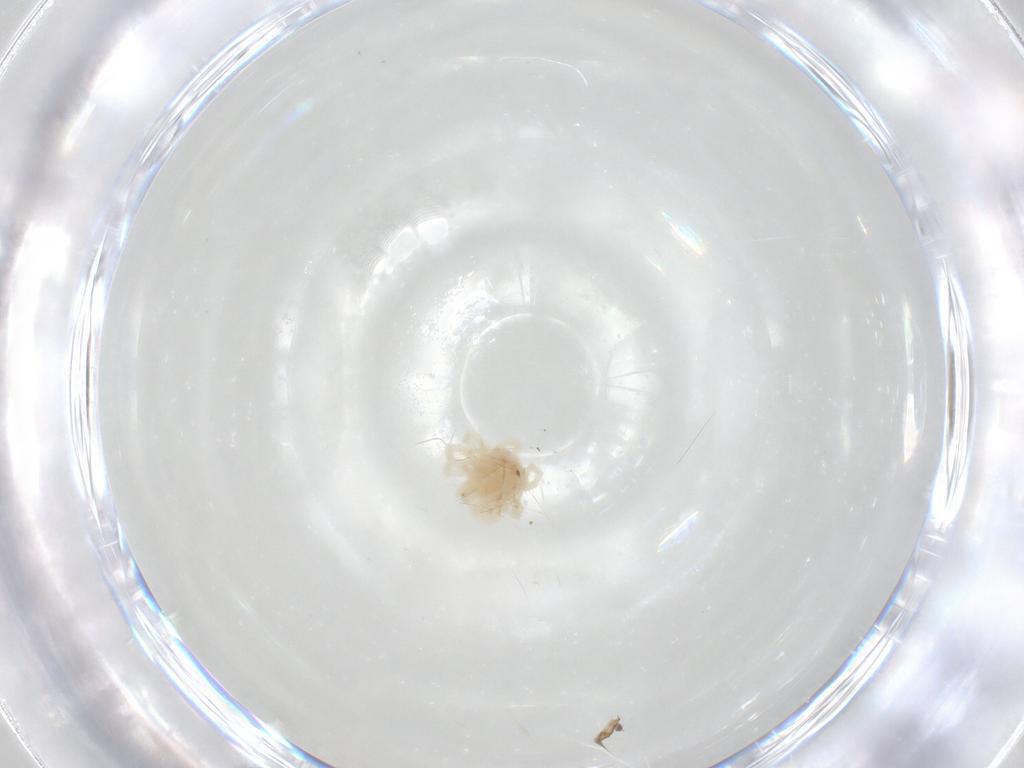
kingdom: Animalia
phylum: Arthropoda
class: Arachnida
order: Trombidiformes
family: Anystidae
